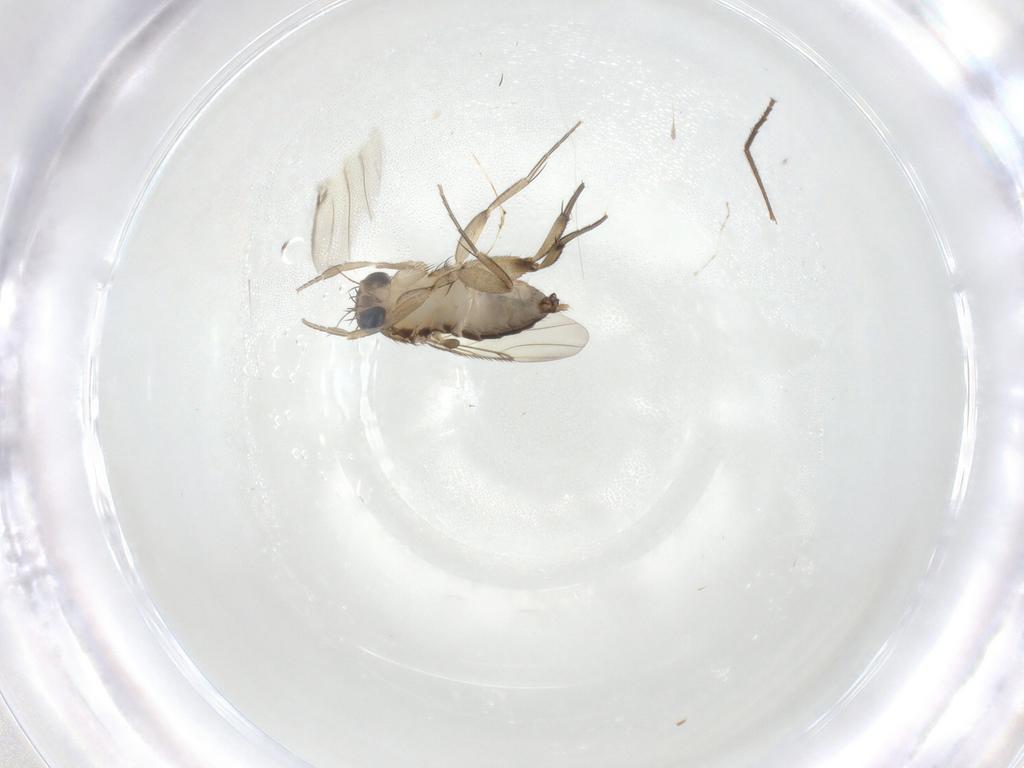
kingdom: Animalia
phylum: Arthropoda
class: Insecta
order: Diptera
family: Phoridae
